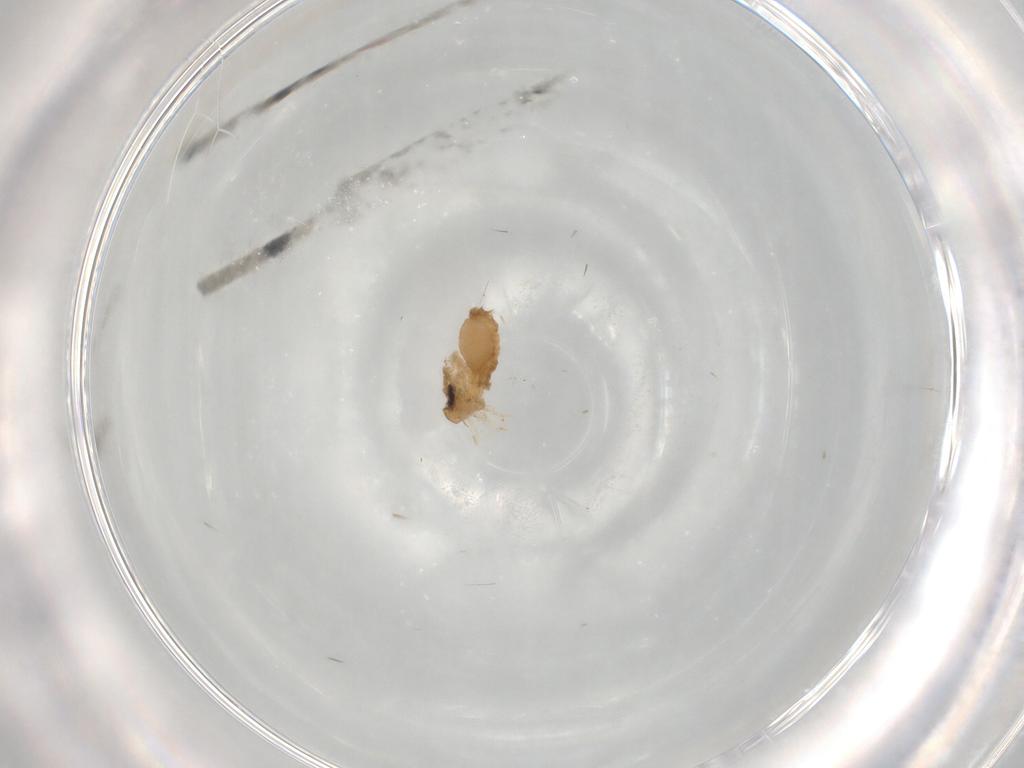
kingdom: Animalia
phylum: Arthropoda
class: Insecta
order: Diptera
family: Psychodidae
